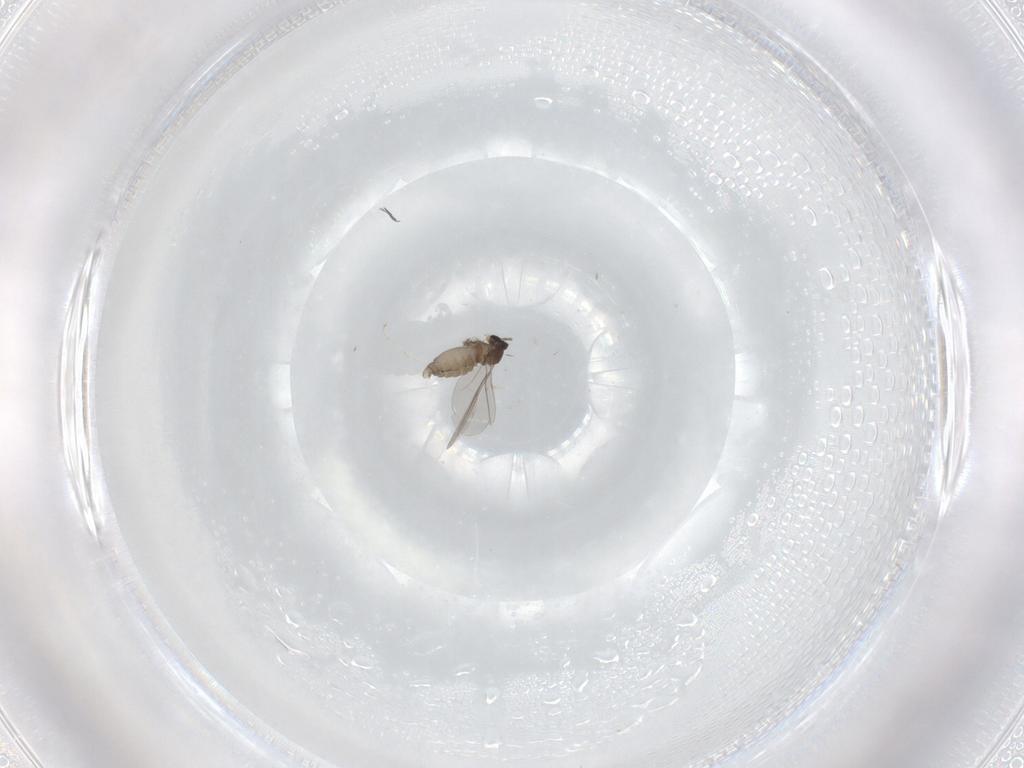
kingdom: Animalia
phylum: Arthropoda
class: Insecta
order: Diptera
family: Cecidomyiidae
